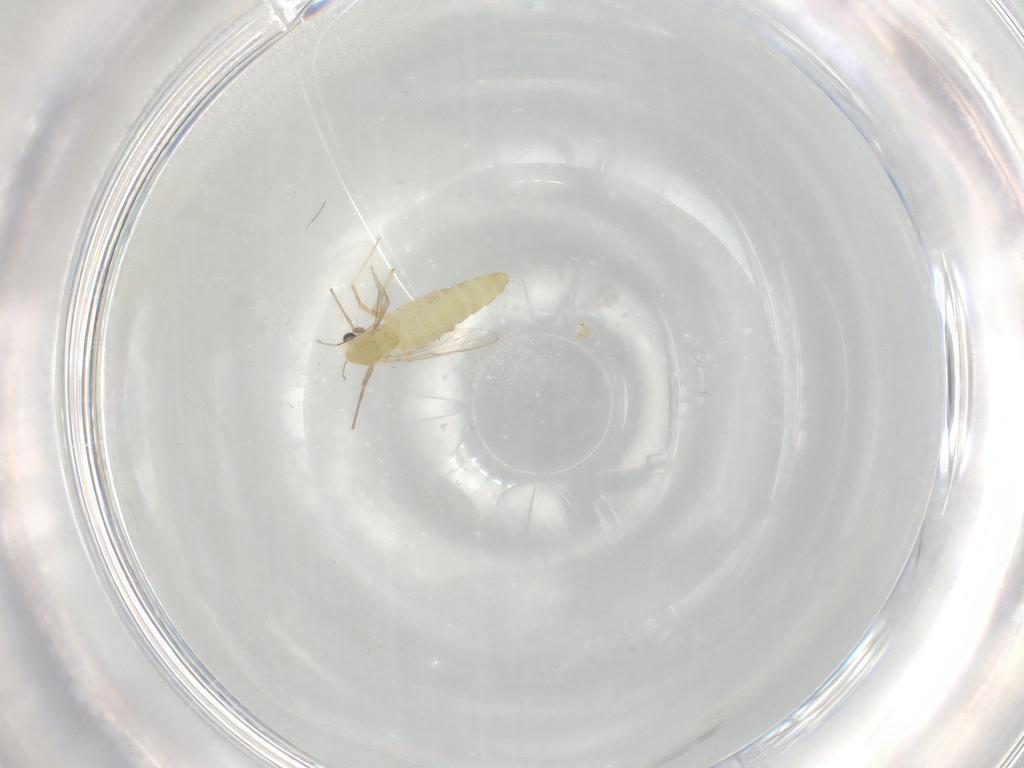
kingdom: Animalia
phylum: Arthropoda
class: Insecta
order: Diptera
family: Chironomidae
